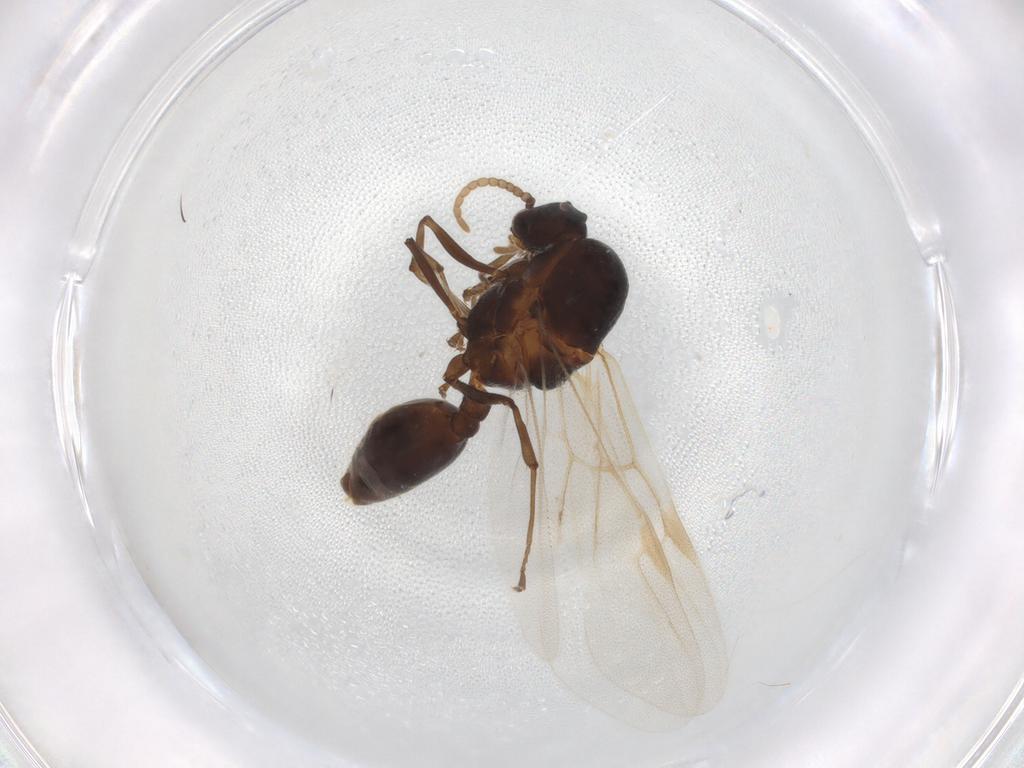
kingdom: Animalia
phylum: Arthropoda
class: Insecta
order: Hymenoptera
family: Formicidae
